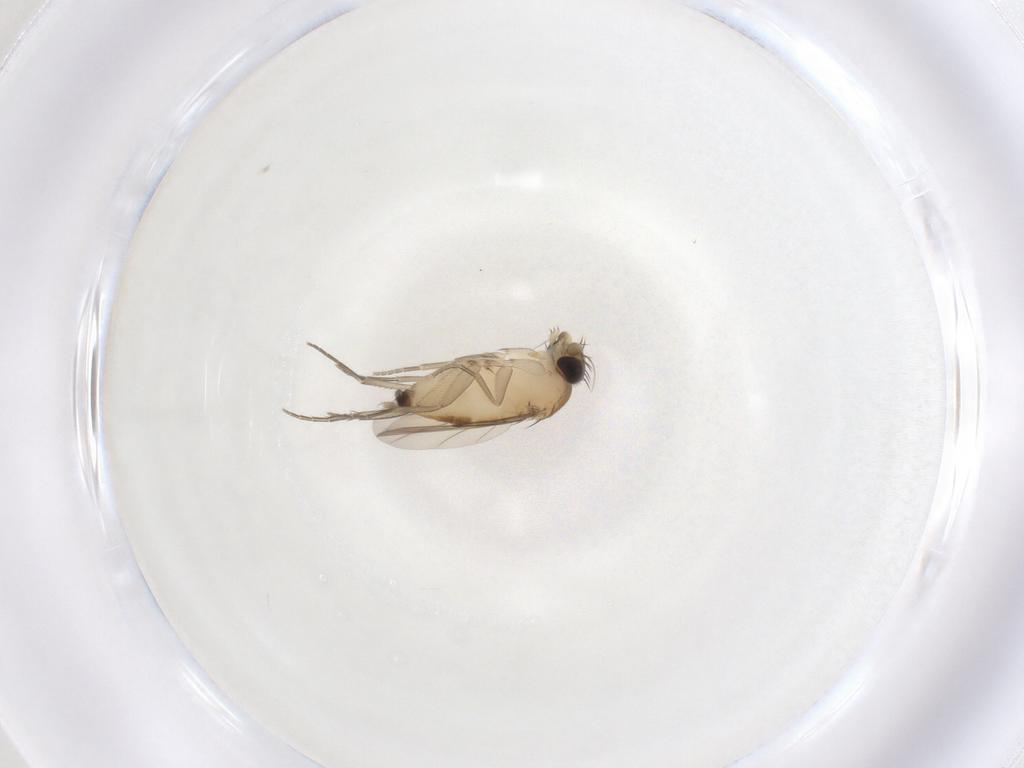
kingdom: Animalia
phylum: Arthropoda
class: Insecta
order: Diptera
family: Phoridae
